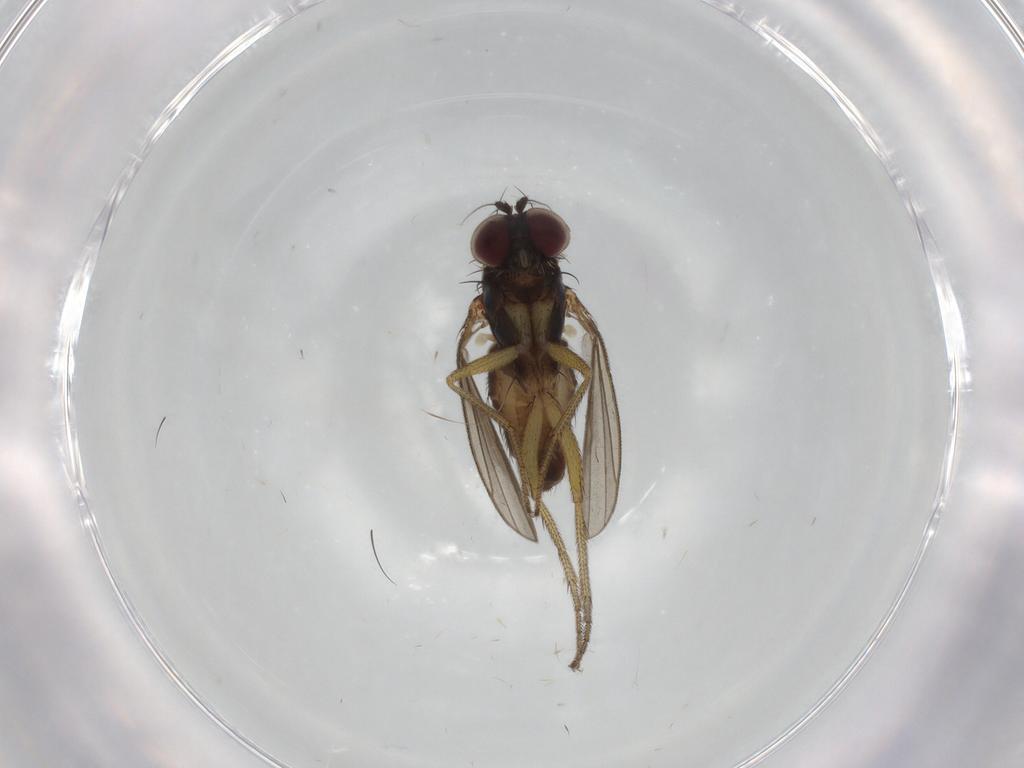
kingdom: Animalia
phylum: Arthropoda
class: Insecta
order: Diptera
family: Dolichopodidae
